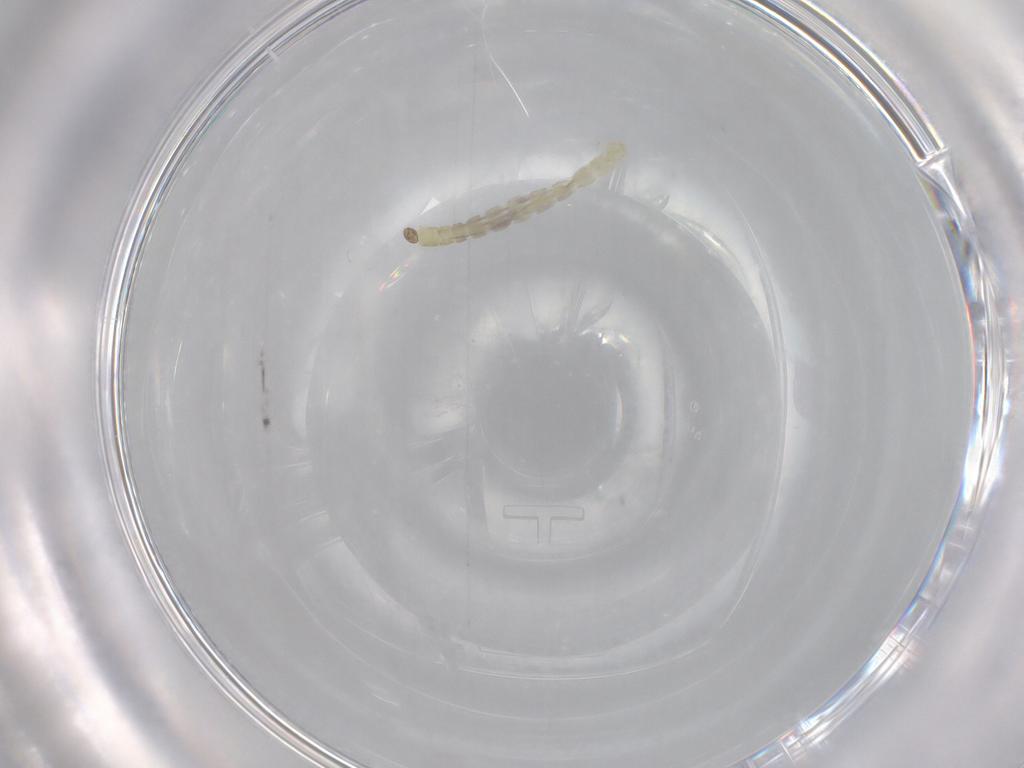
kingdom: Animalia
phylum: Arthropoda
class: Insecta
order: Diptera
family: Chironomidae
